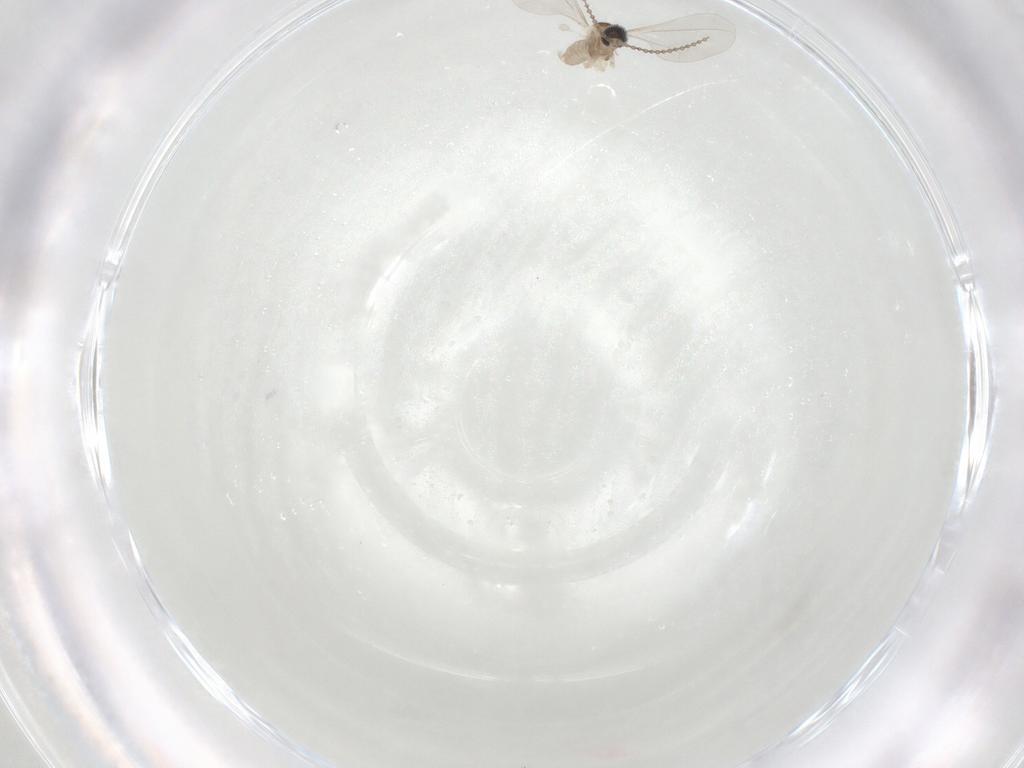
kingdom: Animalia
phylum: Arthropoda
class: Insecta
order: Diptera
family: Cecidomyiidae
